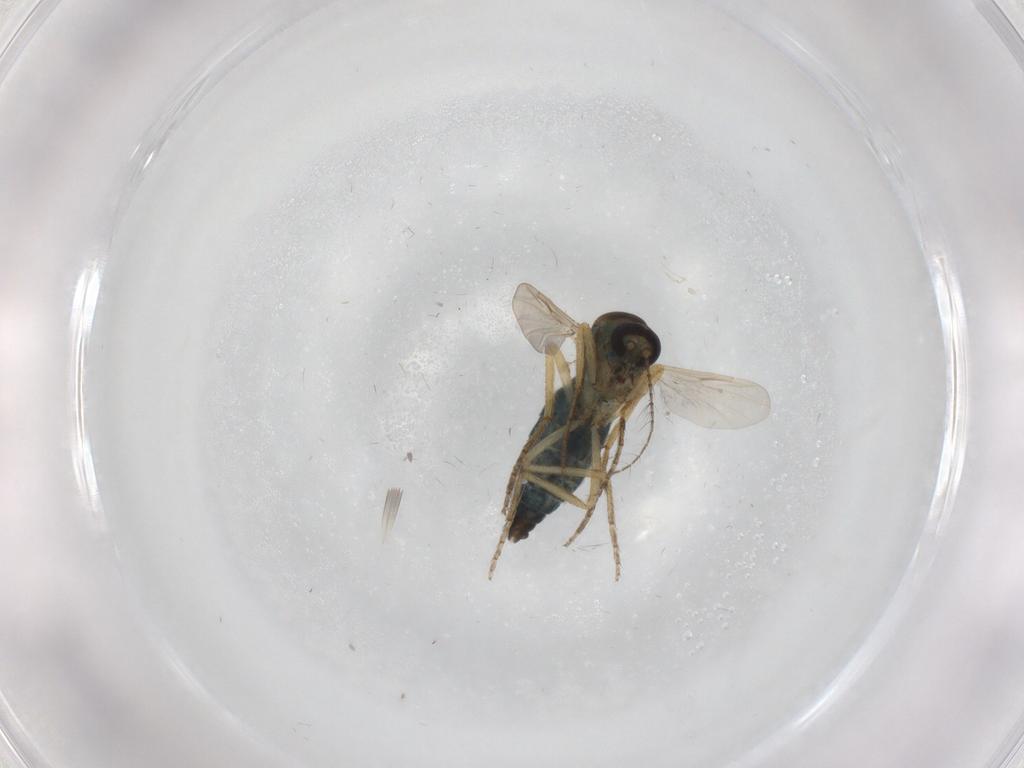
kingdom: Animalia
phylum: Arthropoda
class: Insecta
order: Diptera
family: Ceratopogonidae
